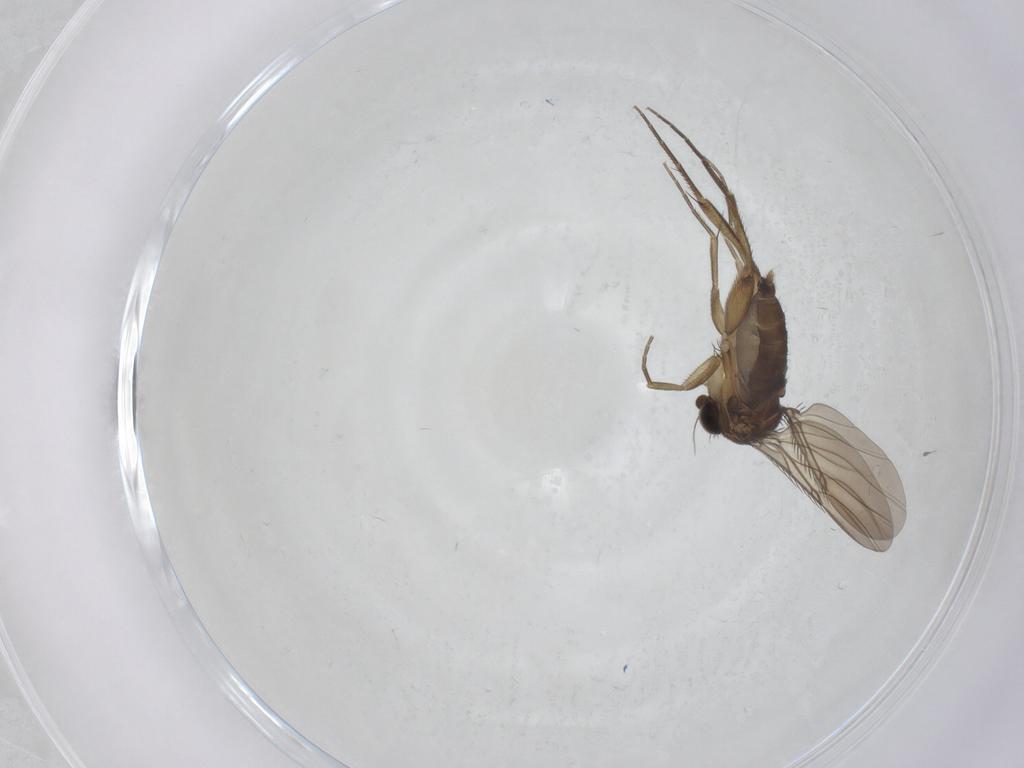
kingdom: Animalia
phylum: Arthropoda
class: Insecta
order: Diptera
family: Phoridae
